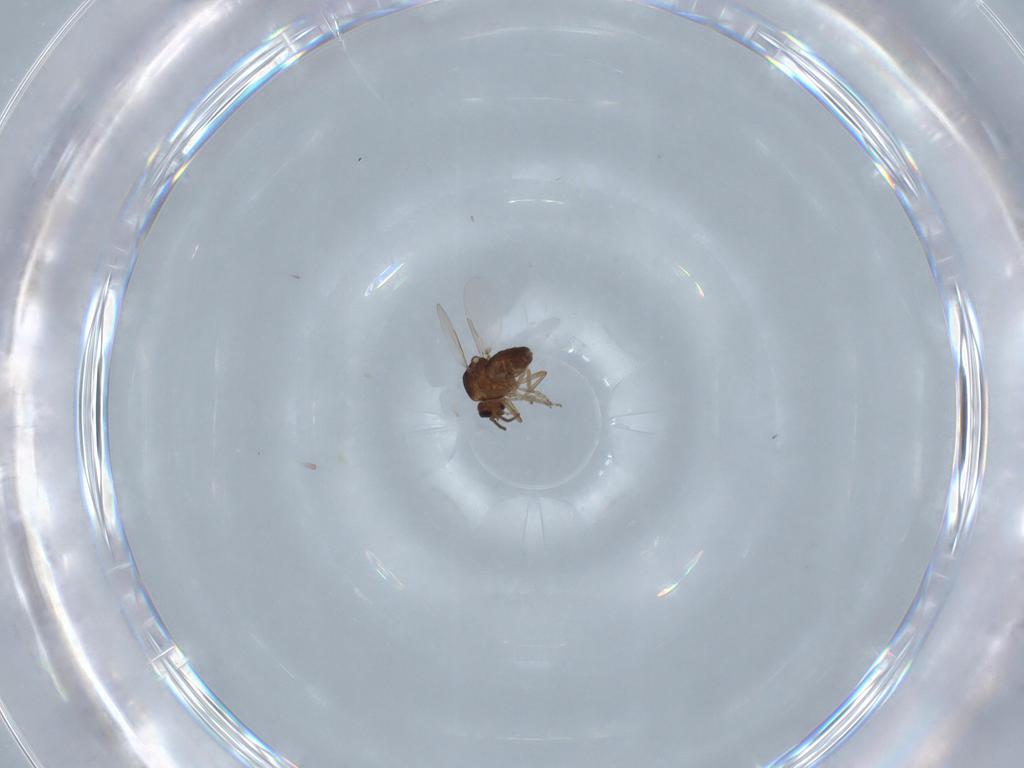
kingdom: Animalia
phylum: Arthropoda
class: Insecta
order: Diptera
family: Ceratopogonidae
